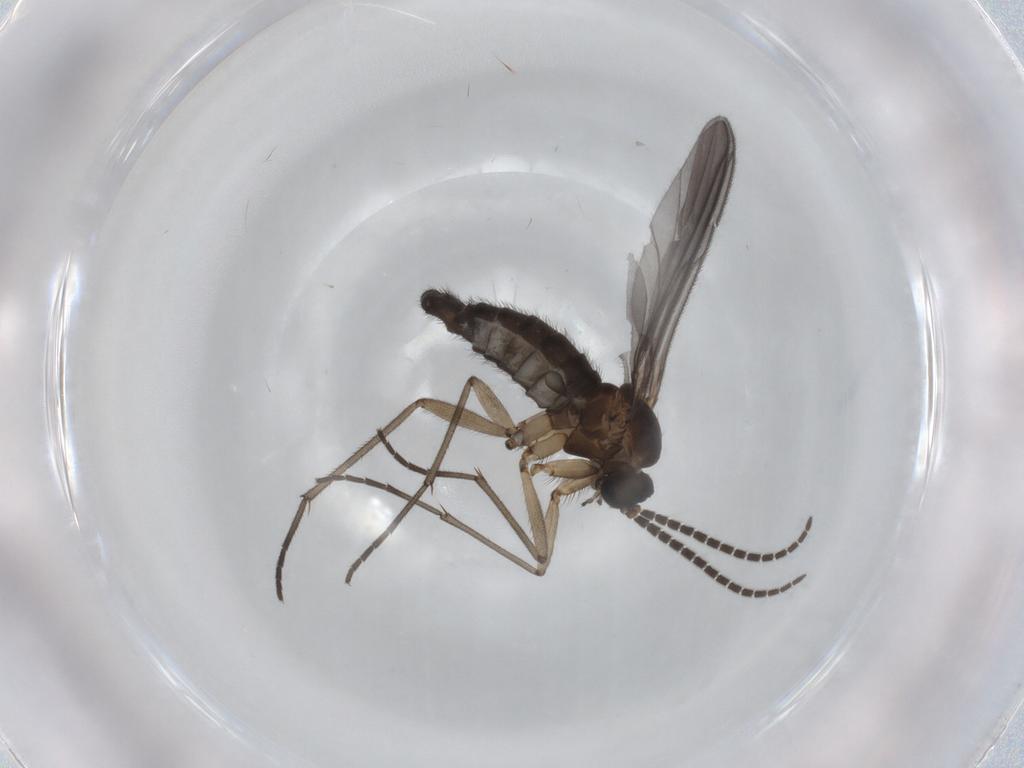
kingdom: Animalia
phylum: Arthropoda
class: Insecta
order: Diptera
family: Sciaridae
